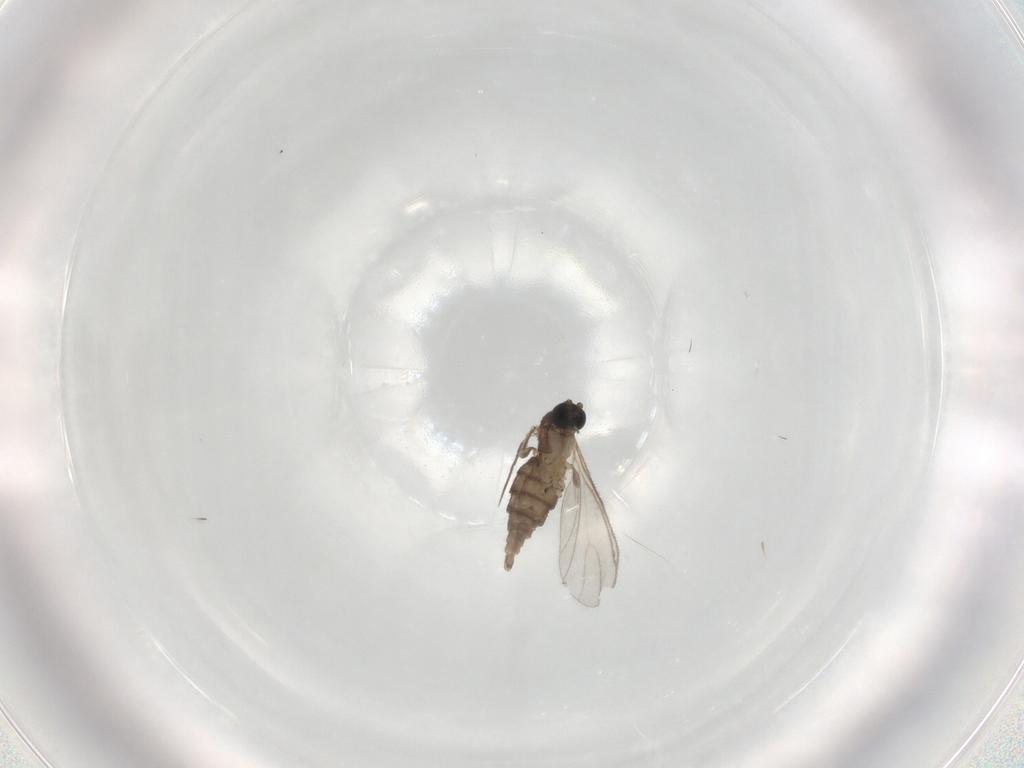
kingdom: Animalia
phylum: Arthropoda
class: Insecta
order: Diptera
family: Sciaridae
